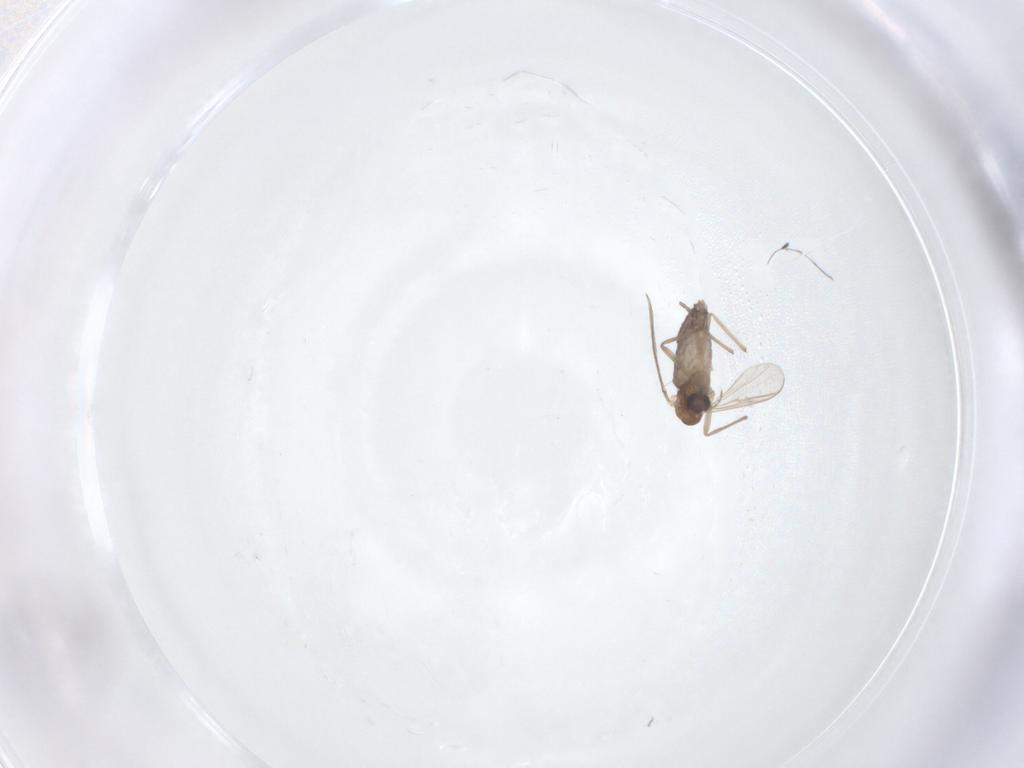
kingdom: Animalia
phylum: Arthropoda
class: Insecta
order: Diptera
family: Chironomidae
